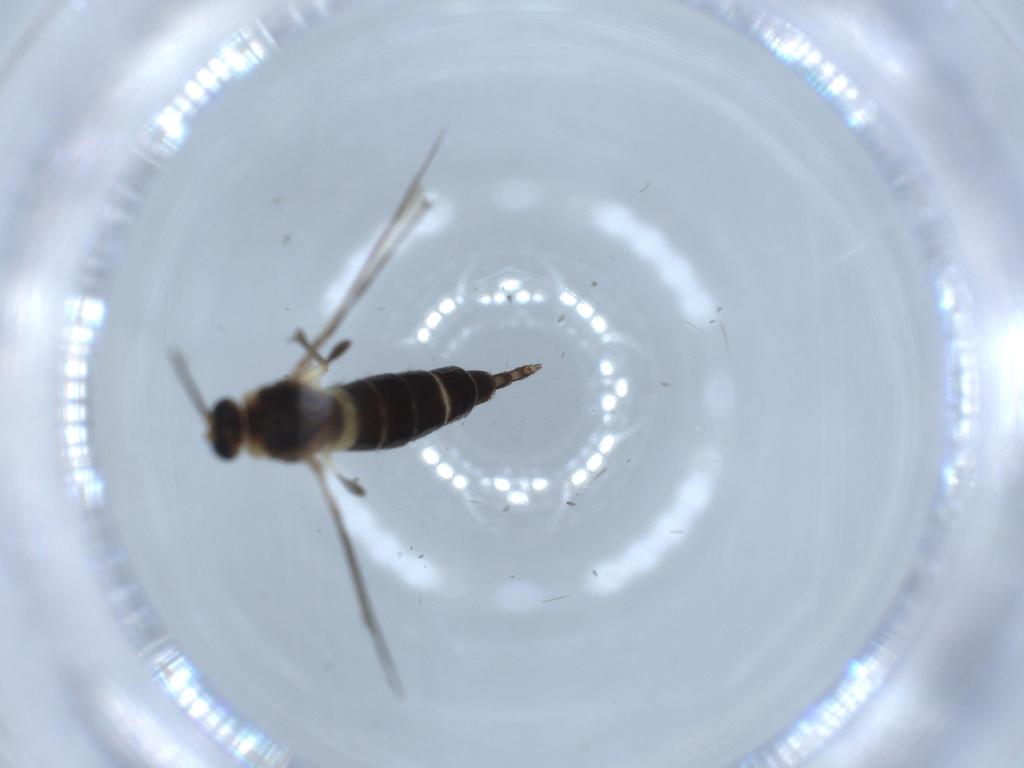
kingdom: Animalia
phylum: Arthropoda
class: Insecta
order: Diptera
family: Sciaridae
